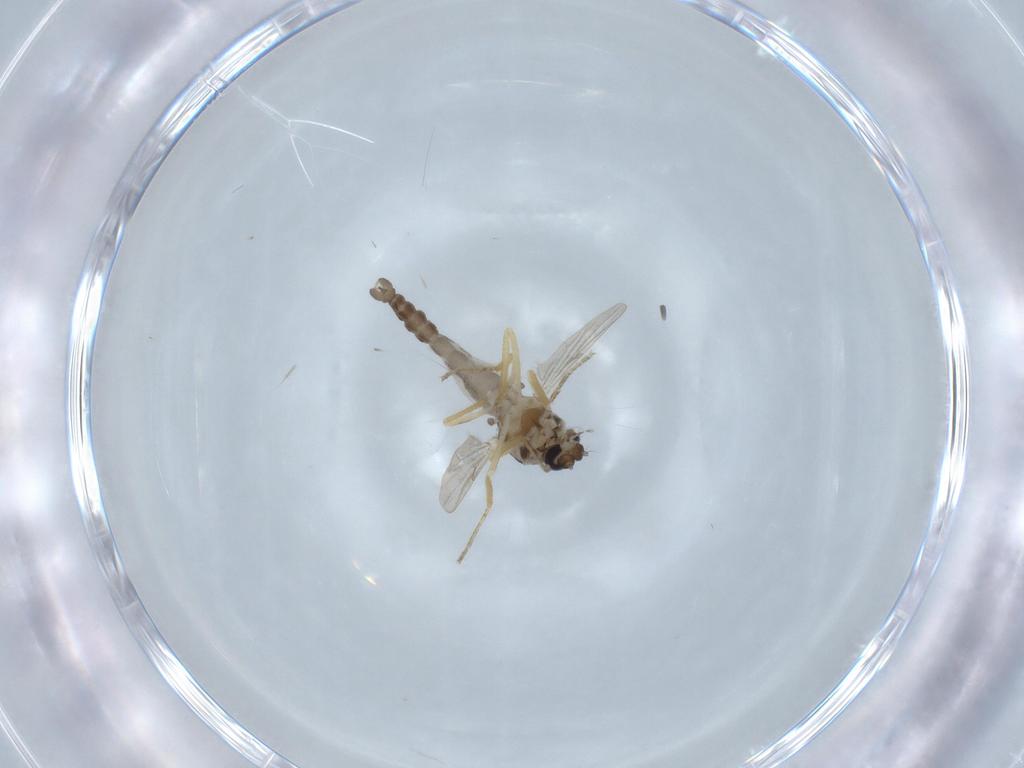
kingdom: Animalia
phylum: Arthropoda
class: Insecta
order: Diptera
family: Ceratopogonidae
